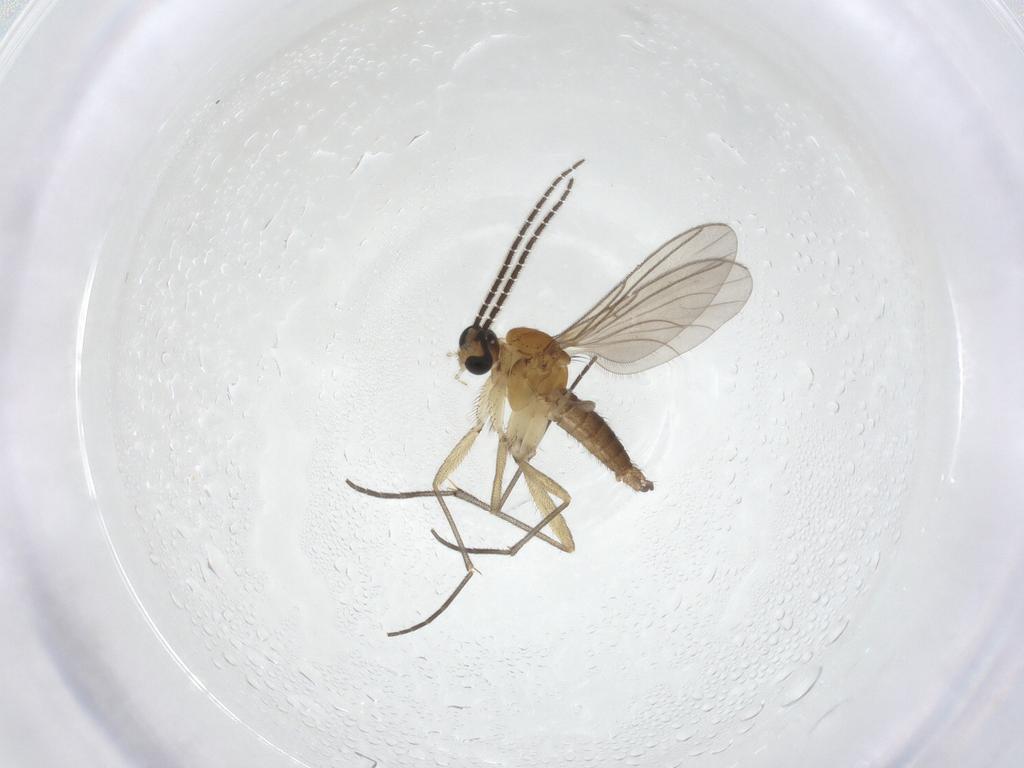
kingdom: Animalia
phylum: Arthropoda
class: Insecta
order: Diptera
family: Sciaridae
